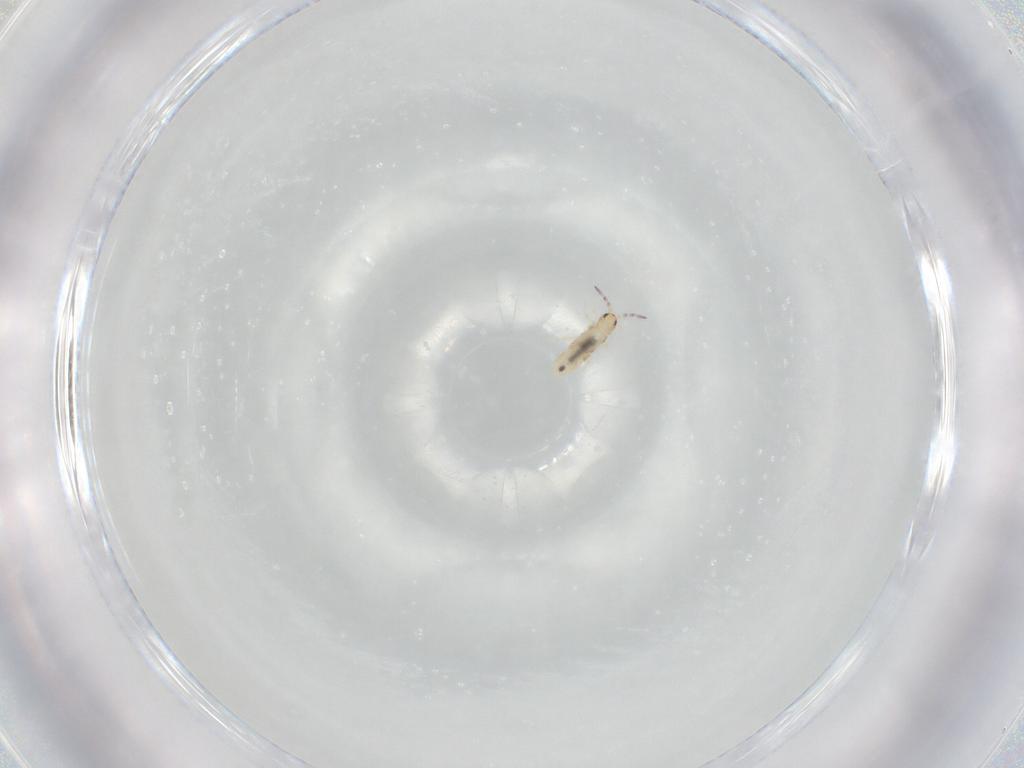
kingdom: Animalia
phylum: Arthropoda
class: Collembola
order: Entomobryomorpha
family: Entomobryidae
